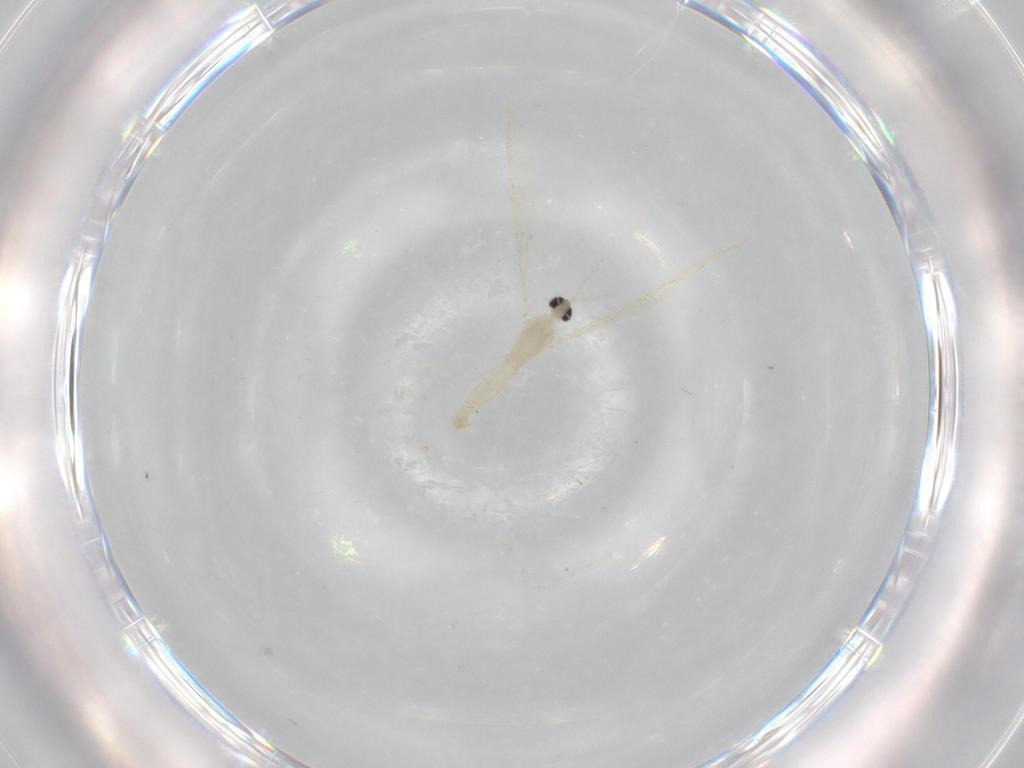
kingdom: Animalia
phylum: Arthropoda
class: Insecta
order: Diptera
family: Cecidomyiidae
